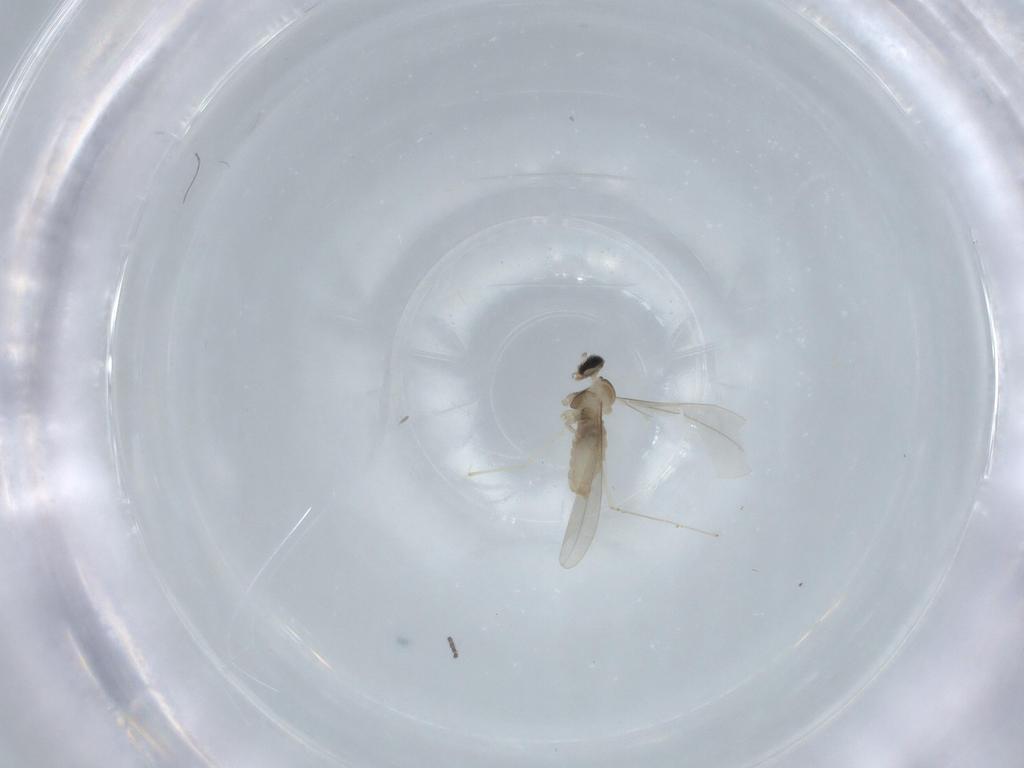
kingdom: Animalia
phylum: Arthropoda
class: Insecta
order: Diptera
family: Cecidomyiidae
